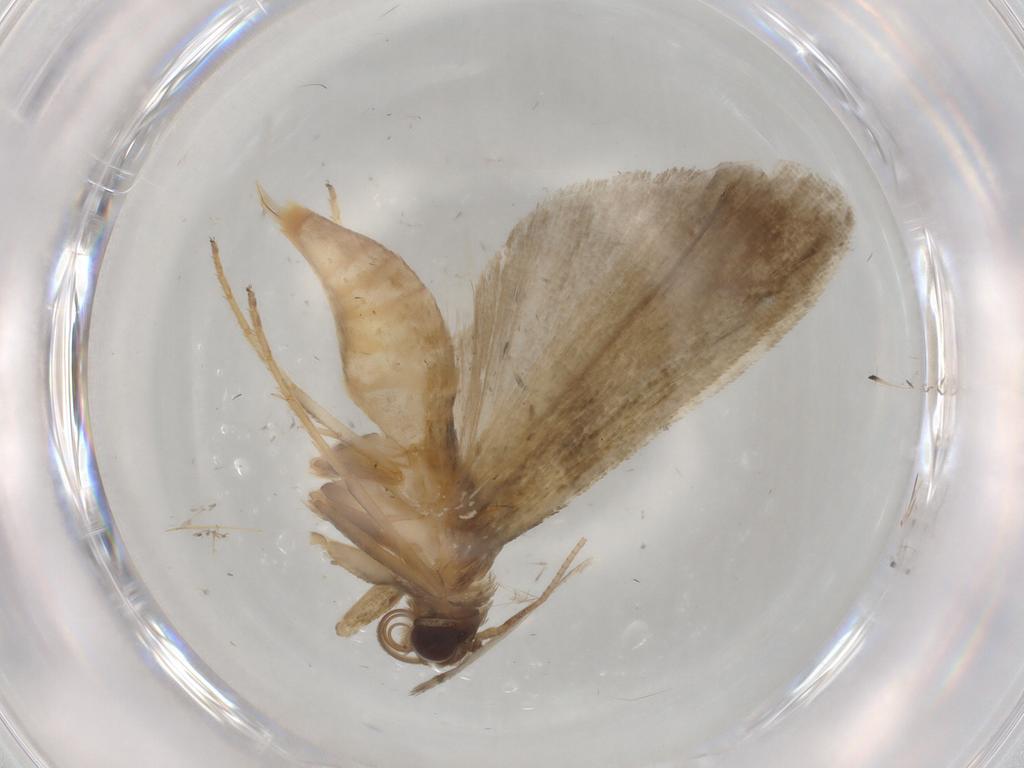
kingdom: Animalia
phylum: Arthropoda
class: Insecta
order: Lepidoptera
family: Noctuidae
